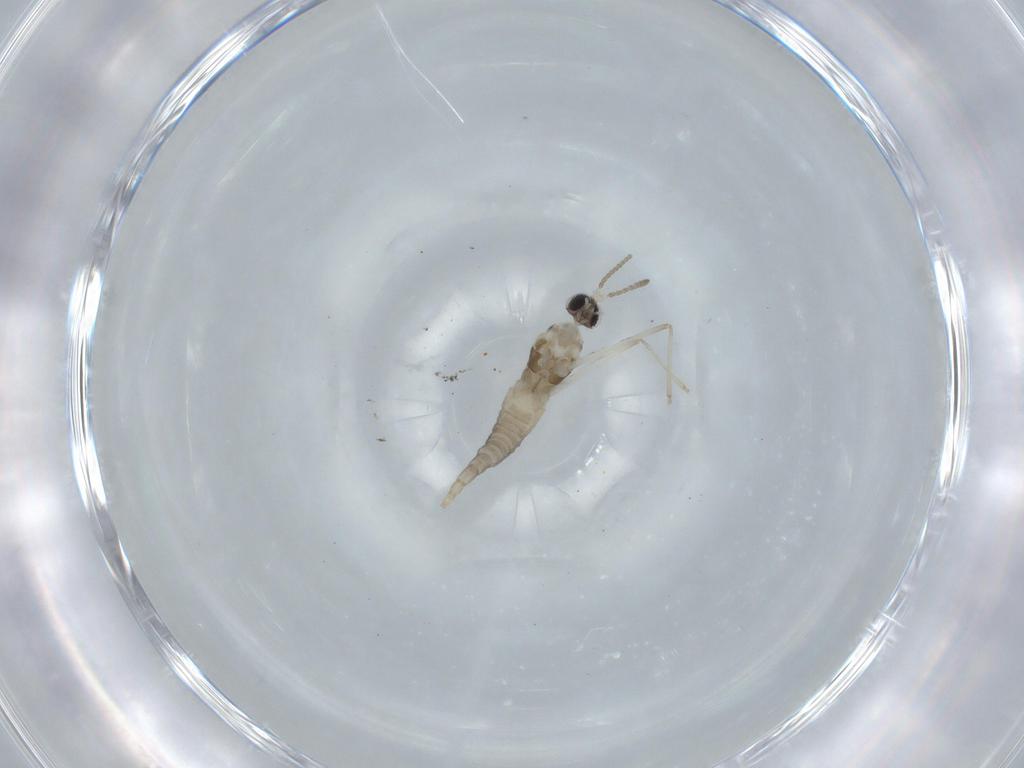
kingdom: Animalia
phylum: Arthropoda
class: Insecta
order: Diptera
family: Cecidomyiidae
